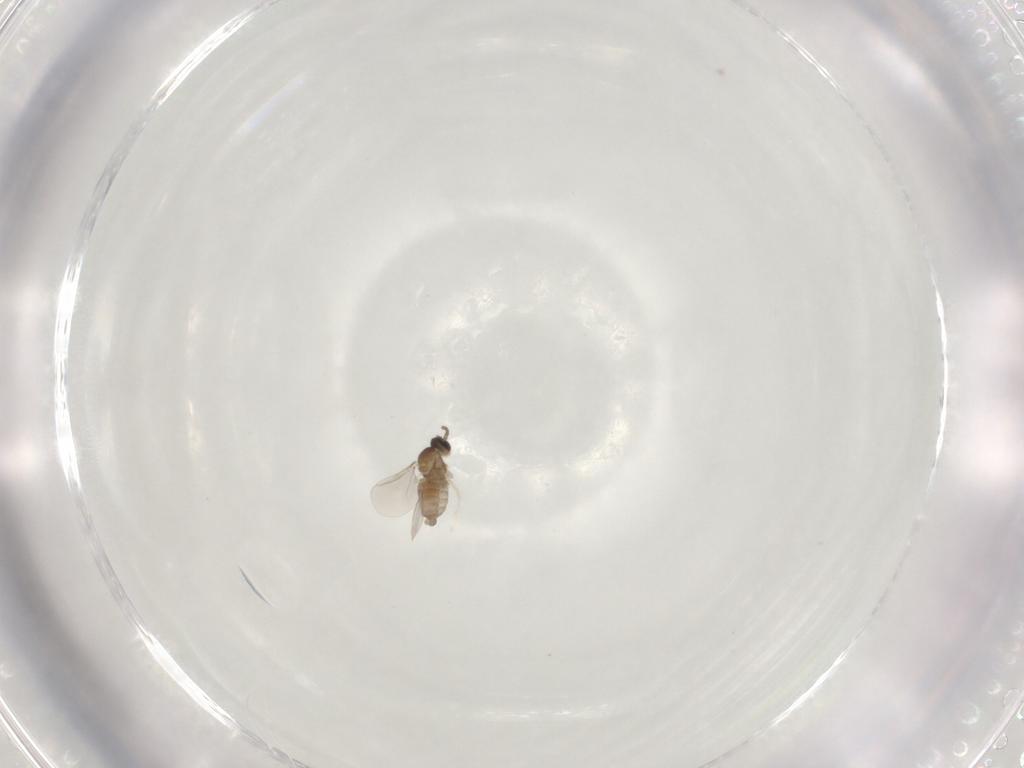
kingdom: Animalia
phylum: Arthropoda
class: Insecta
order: Diptera
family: Cecidomyiidae
